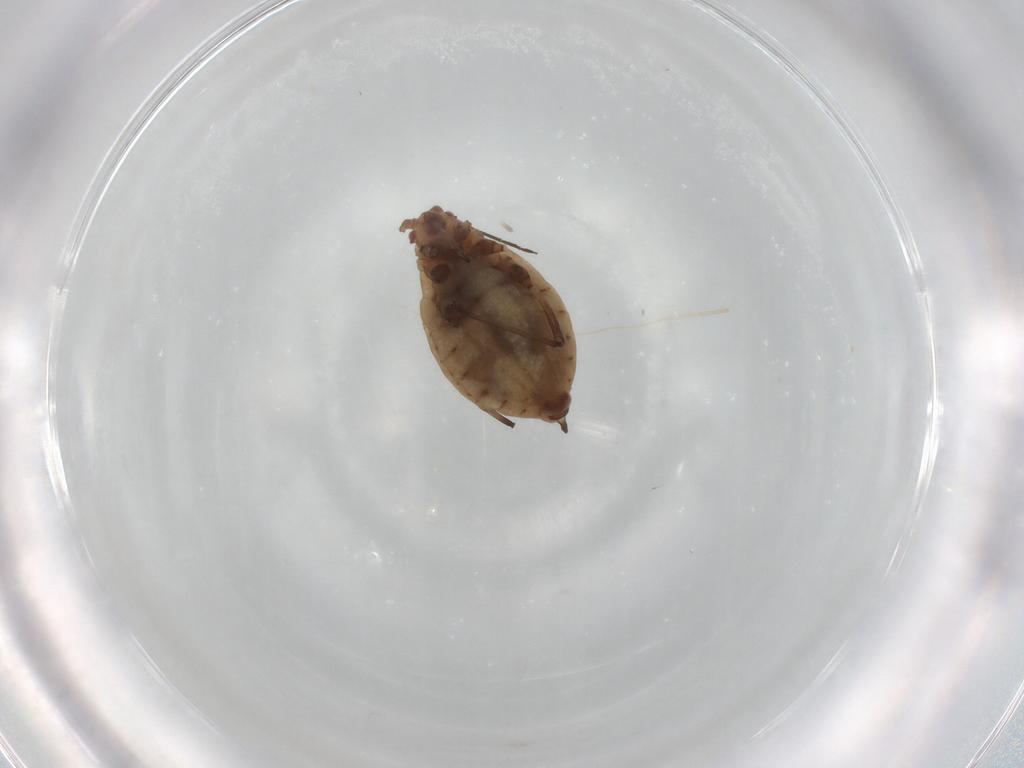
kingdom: Animalia
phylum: Arthropoda
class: Insecta
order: Hemiptera
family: Aphididae
